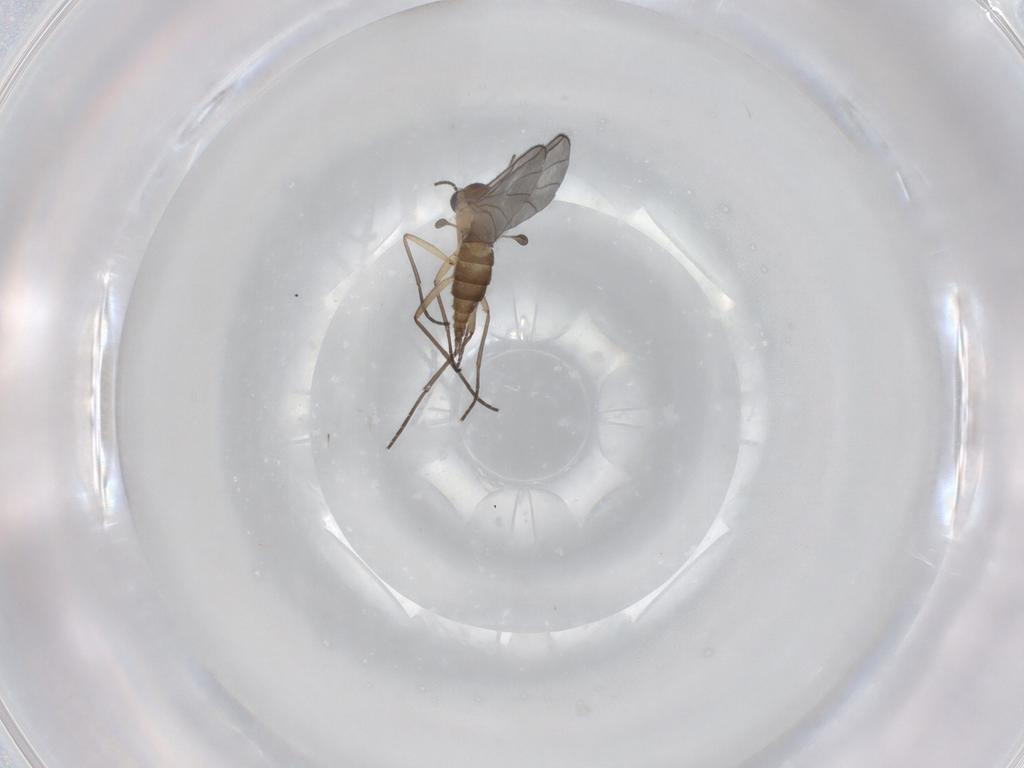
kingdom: Animalia
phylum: Arthropoda
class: Insecta
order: Diptera
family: Sciaridae
